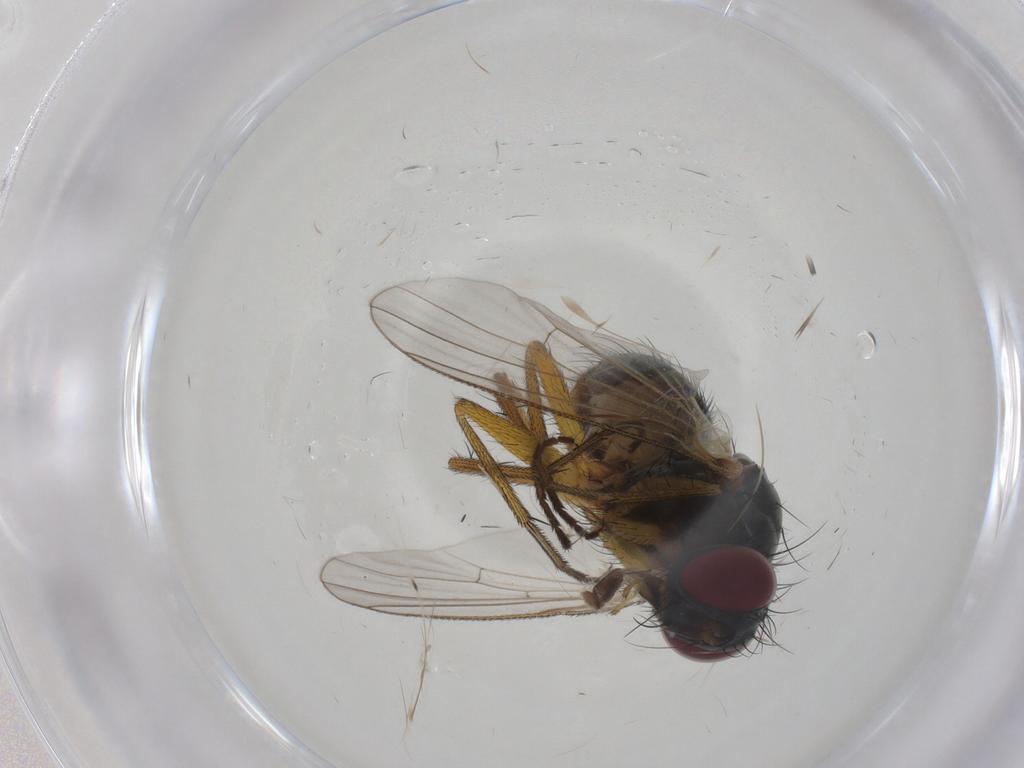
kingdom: Animalia
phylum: Arthropoda
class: Insecta
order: Diptera
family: Muscidae
